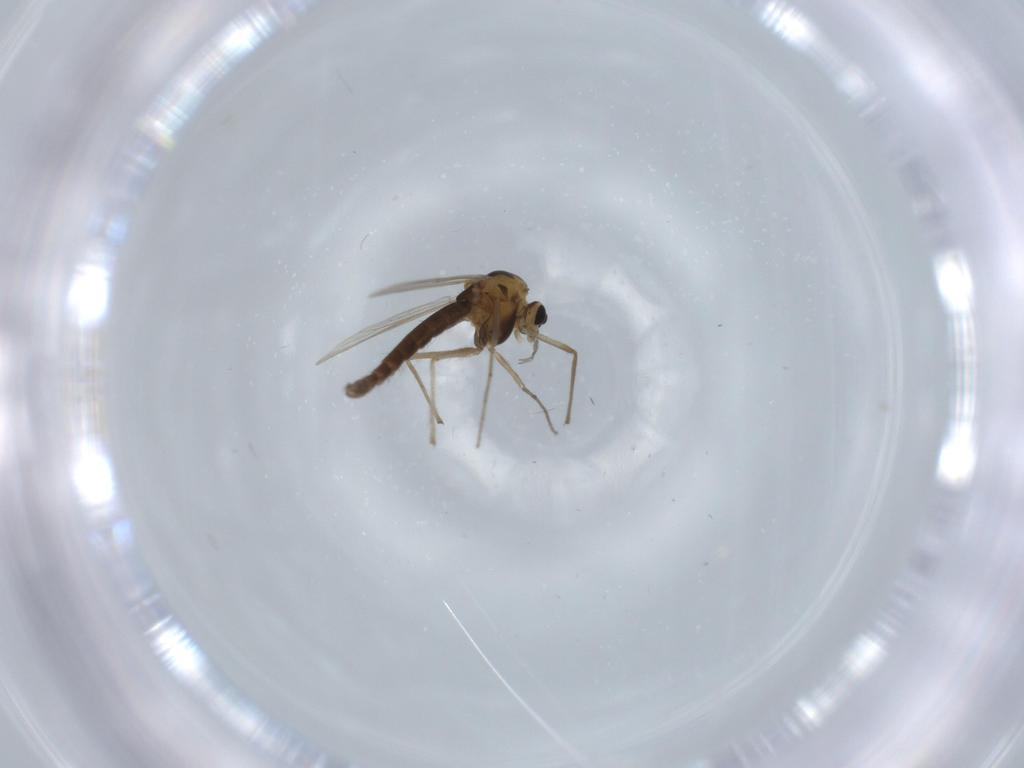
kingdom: Animalia
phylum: Arthropoda
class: Insecta
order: Diptera
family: Chironomidae
